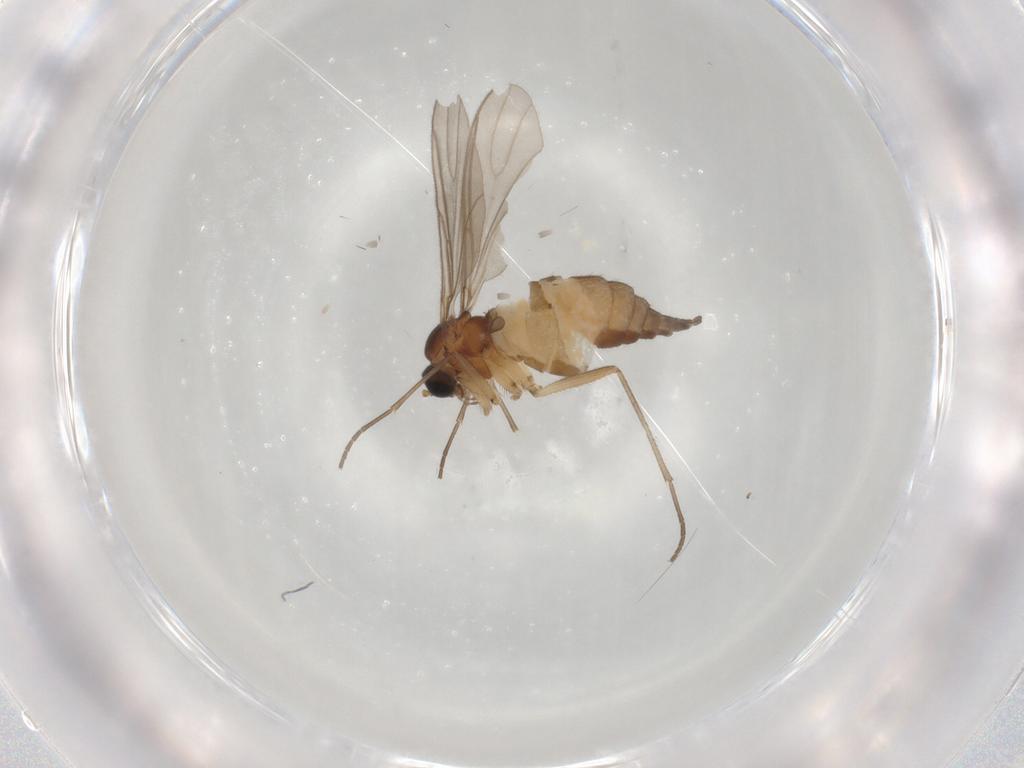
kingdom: Animalia
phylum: Arthropoda
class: Insecta
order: Diptera
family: Sciaridae
